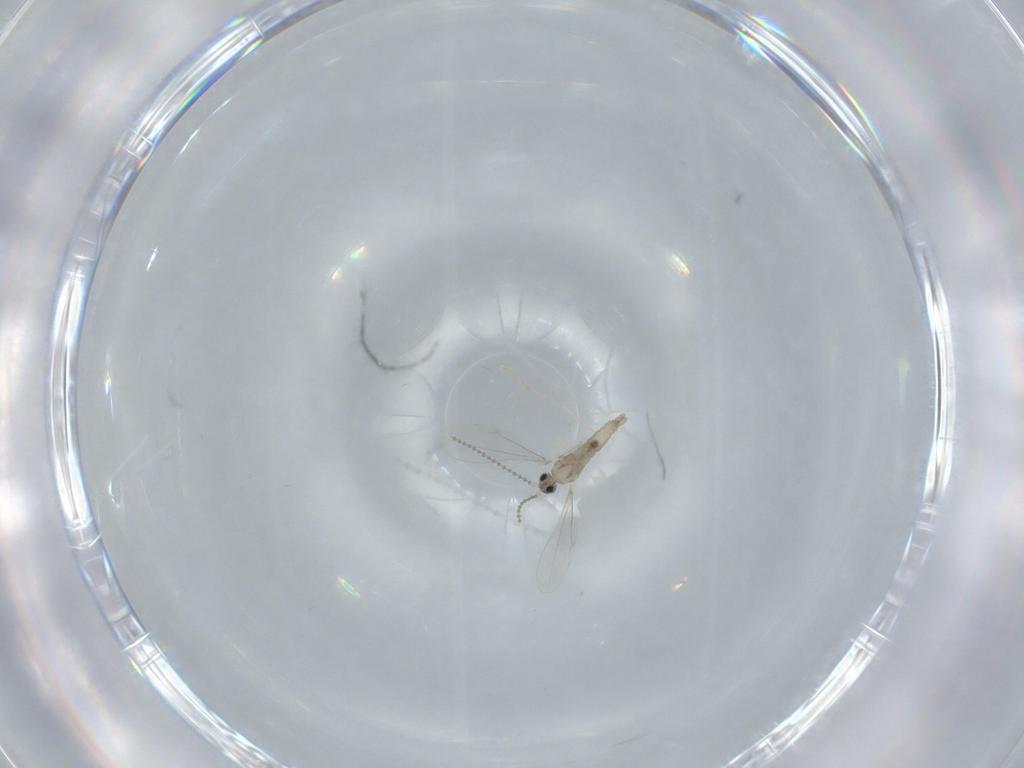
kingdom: Animalia
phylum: Arthropoda
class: Insecta
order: Diptera
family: Cecidomyiidae
